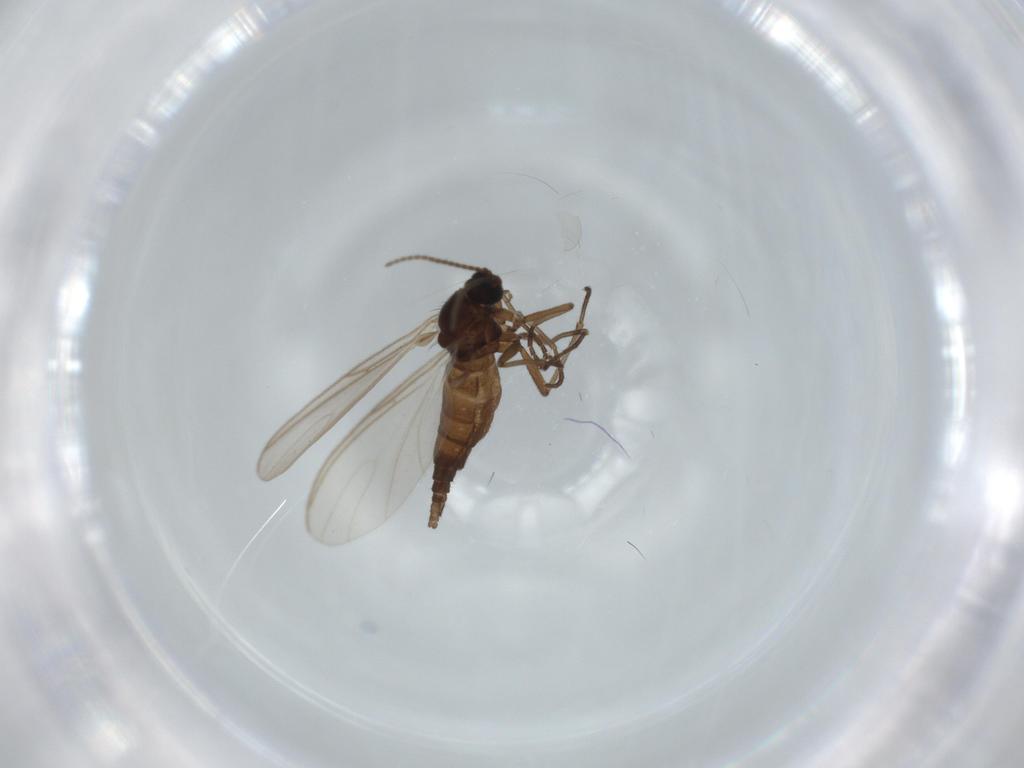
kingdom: Animalia
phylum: Arthropoda
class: Insecta
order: Diptera
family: Sciaridae
